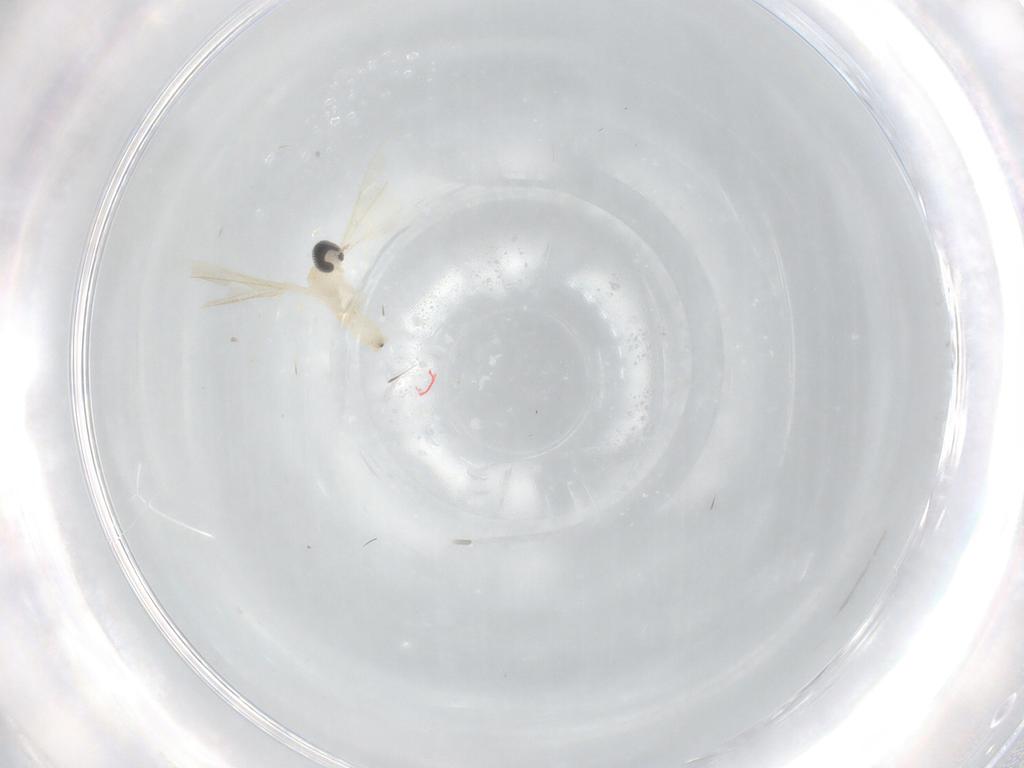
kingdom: Animalia
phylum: Arthropoda
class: Insecta
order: Diptera
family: Cecidomyiidae
